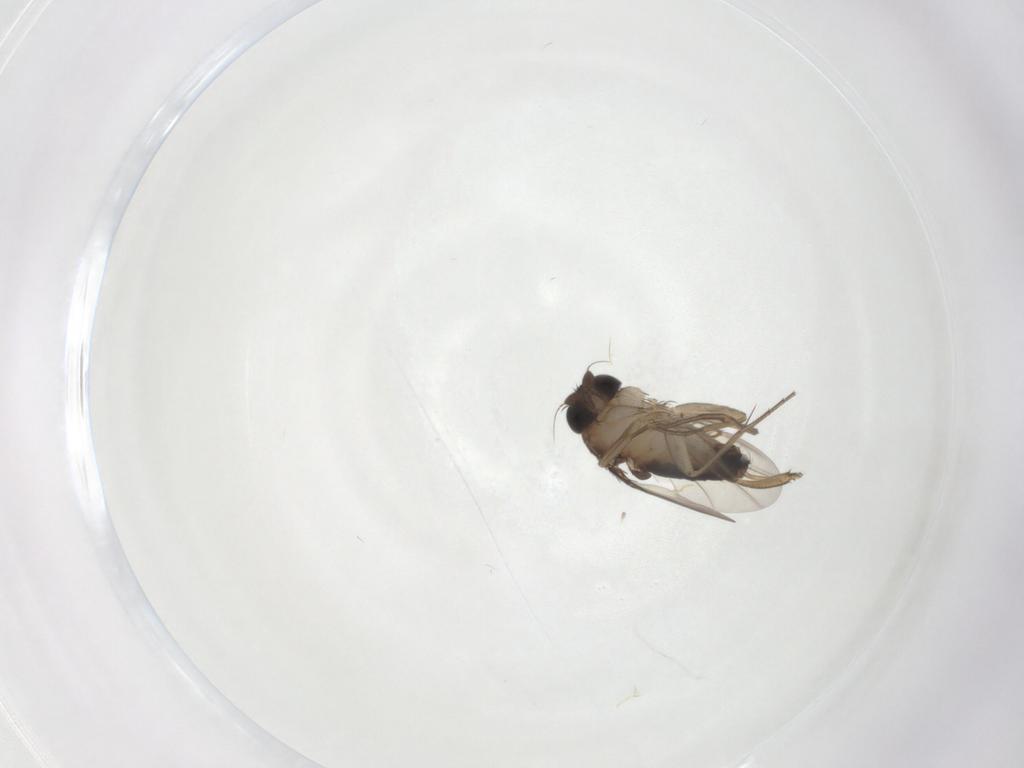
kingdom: Animalia
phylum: Arthropoda
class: Insecta
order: Diptera
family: Phoridae
